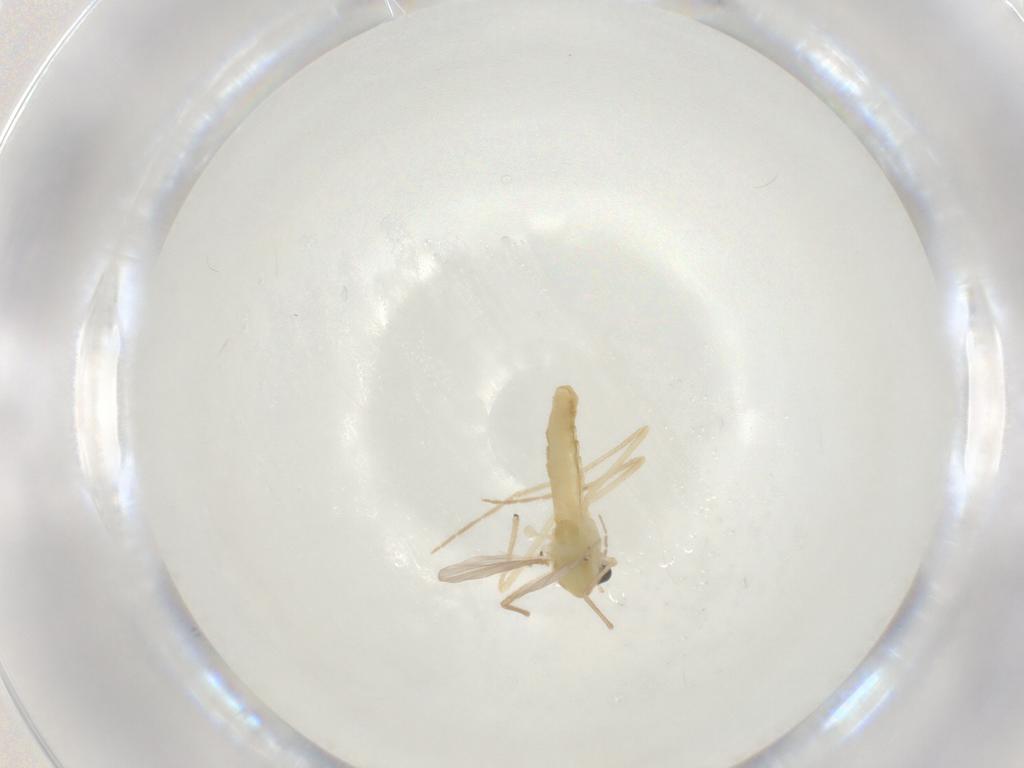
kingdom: Animalia
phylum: Arthropoda
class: Insecta
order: Diptera
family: Chironomidae
